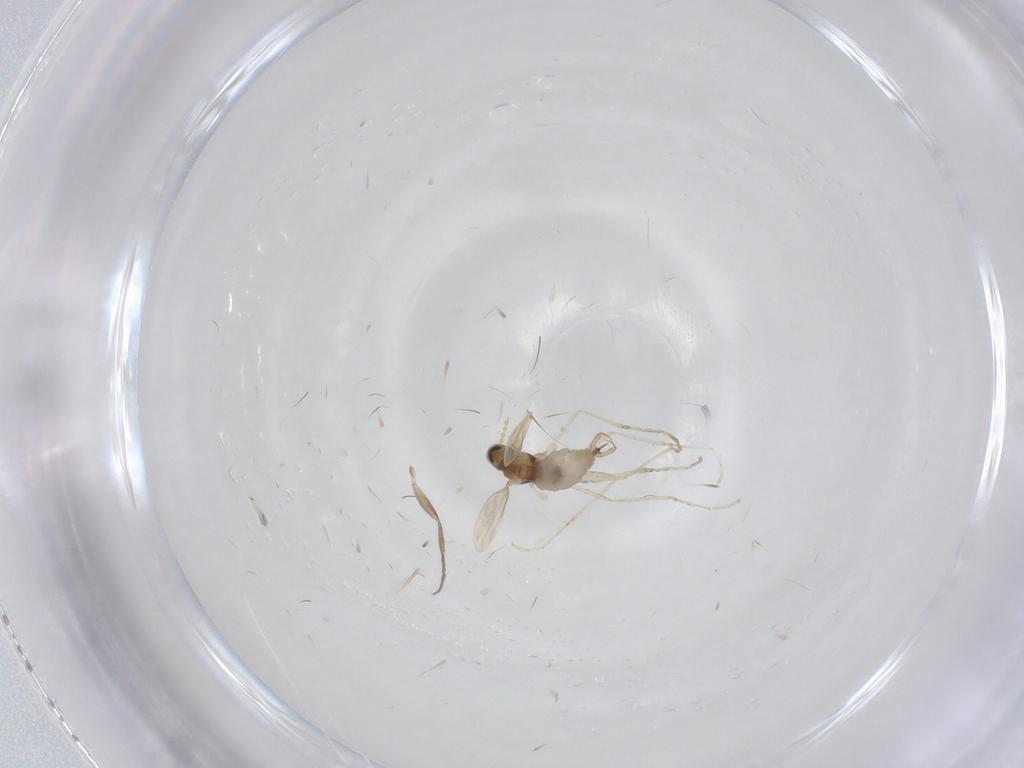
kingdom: Animalia
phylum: Arthropoda
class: Insecta
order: Diptera
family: Cecidomyiidae
